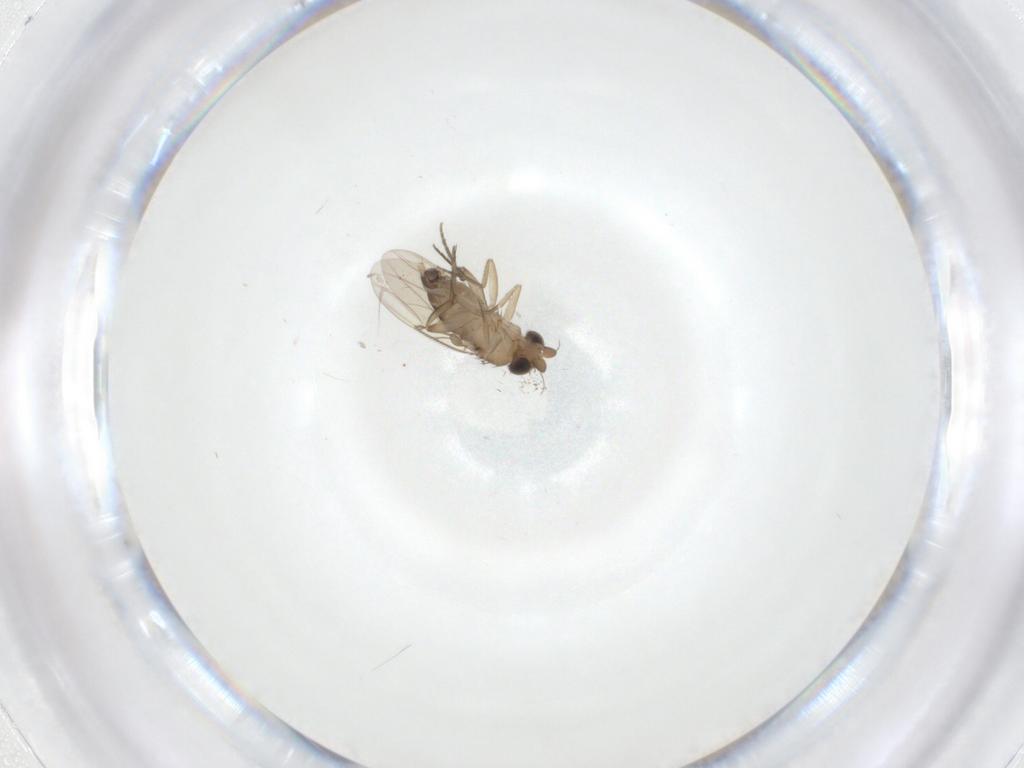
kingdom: Animalia
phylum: Arthropoda
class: Insecta
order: Diptera
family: Phoridae
